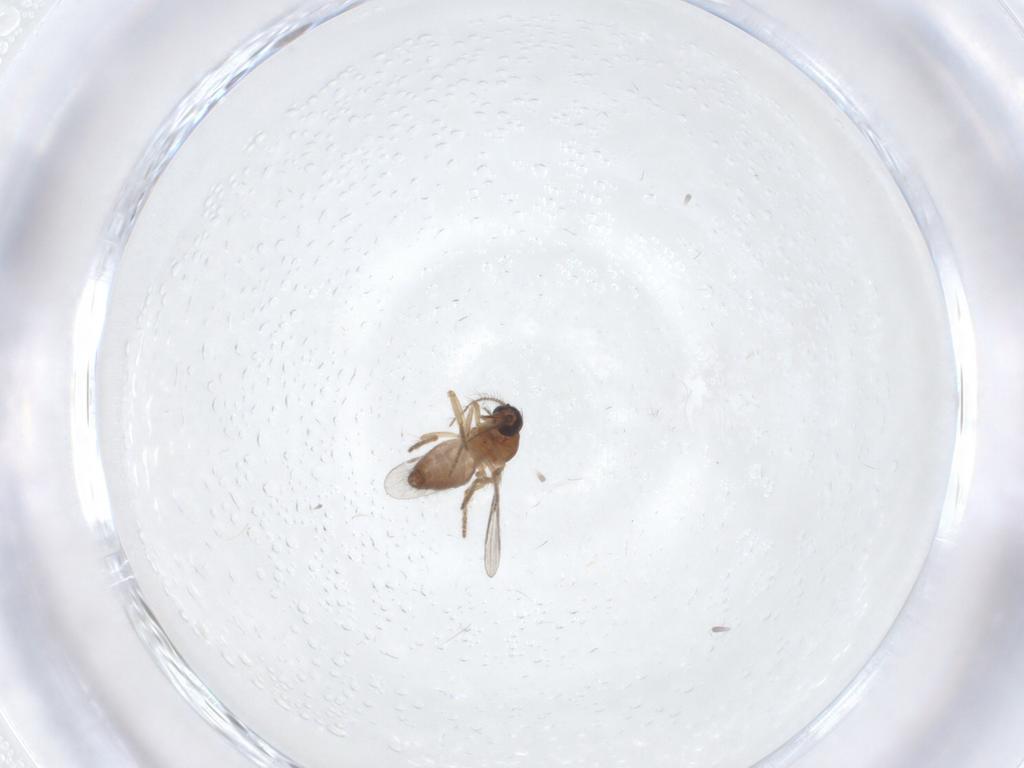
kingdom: Animalia
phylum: Arthropoda
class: Insecta
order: Diptera
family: Ceratopogonidae
